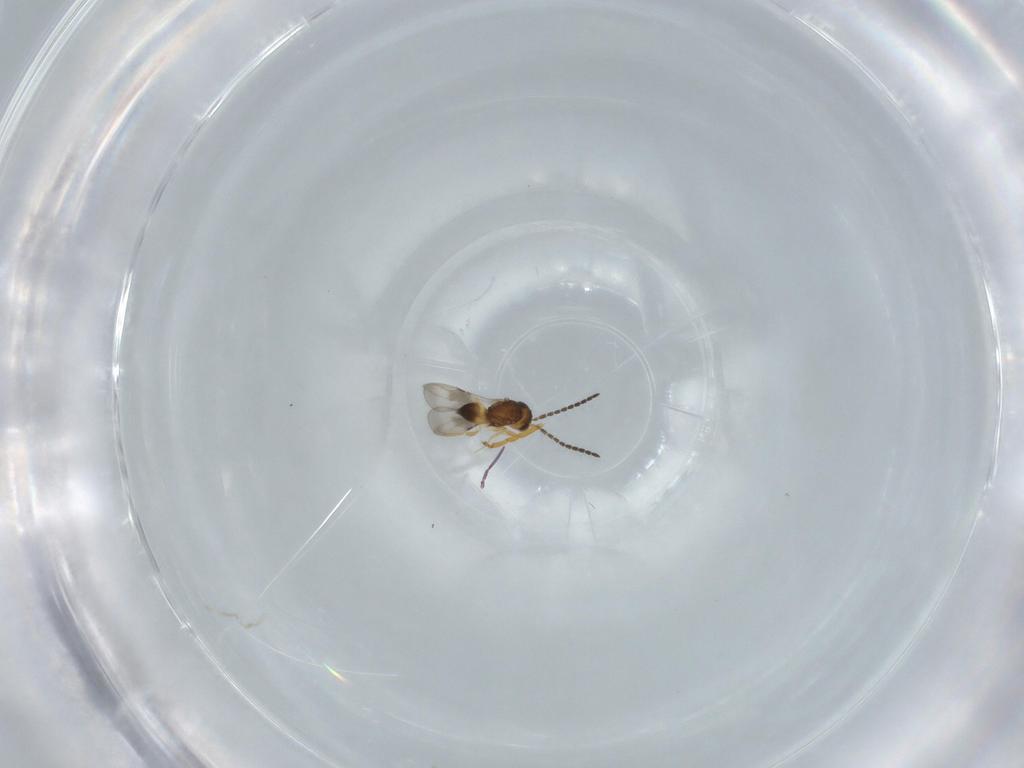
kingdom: Animalia
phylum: Arthropoda
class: Insecta
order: Hymenoptera
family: Formicidae
